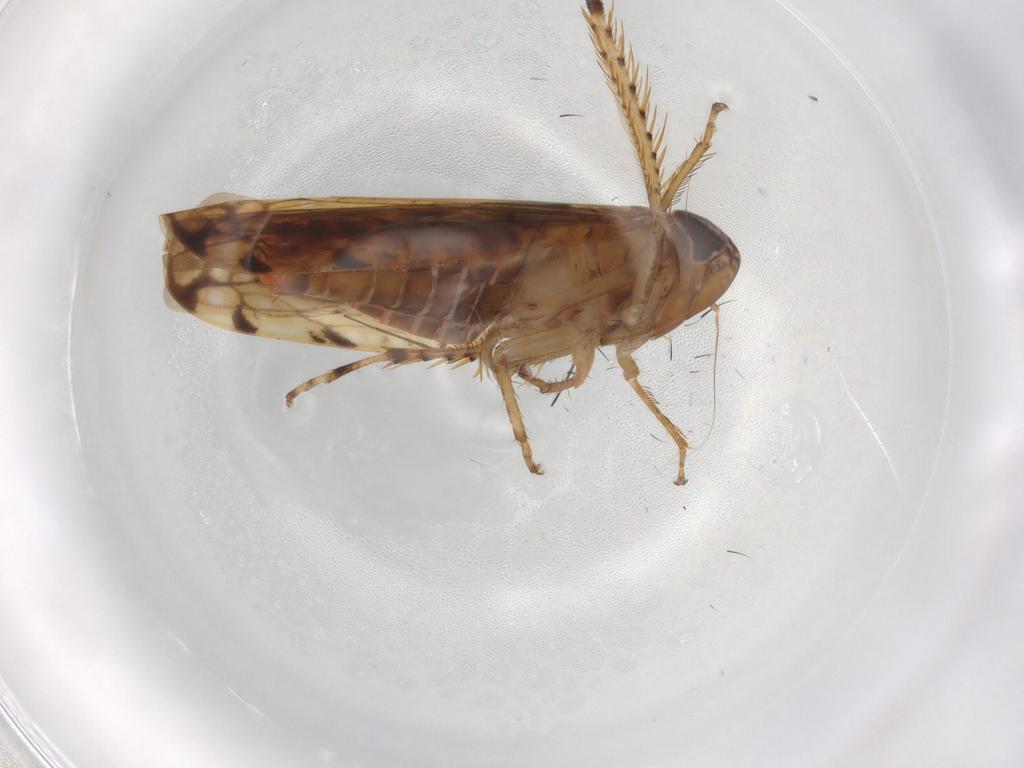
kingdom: Animalia
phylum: Arthropoda
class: Insecta
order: Hemiptera
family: Cicadellidae
